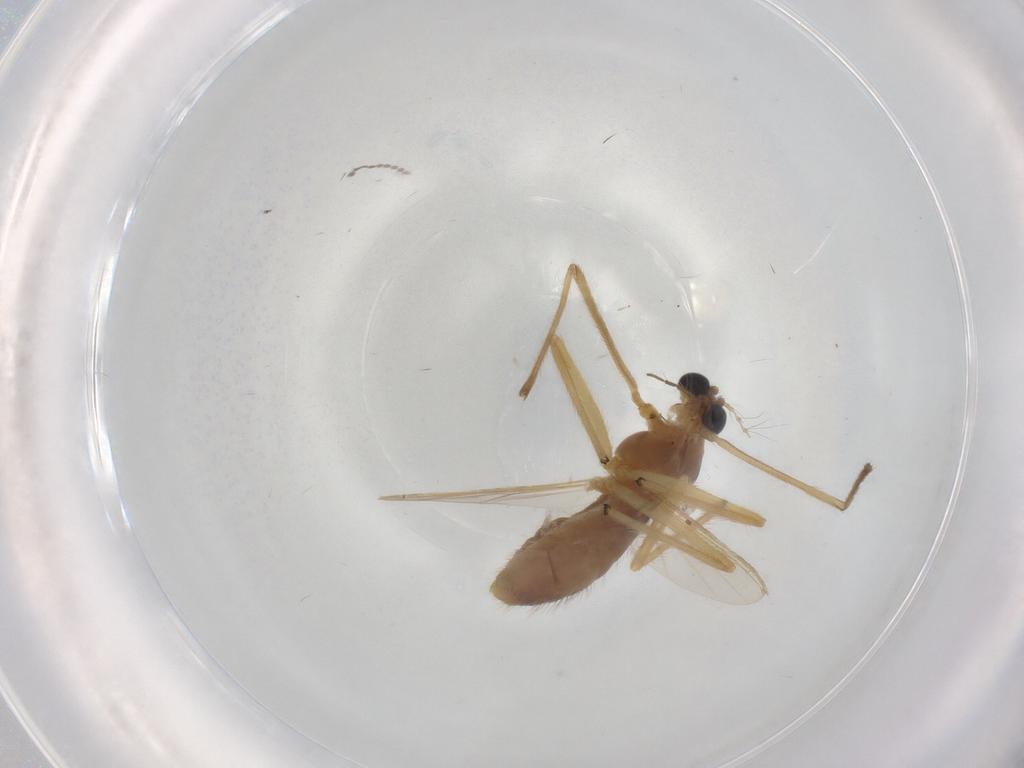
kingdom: Animalia
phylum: Arthropoda
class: Insecta
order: Diptera
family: Chironomidae
